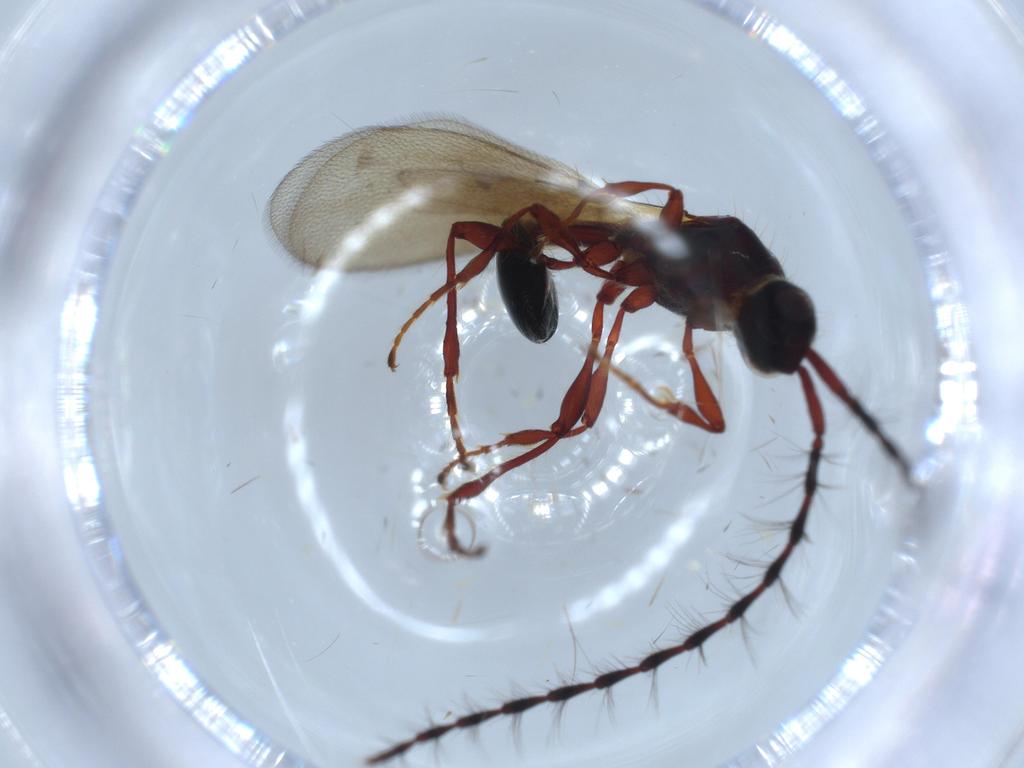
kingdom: Animalia
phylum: Arthropoda
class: Insecta
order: Hymenoptera
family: Diapriidae
